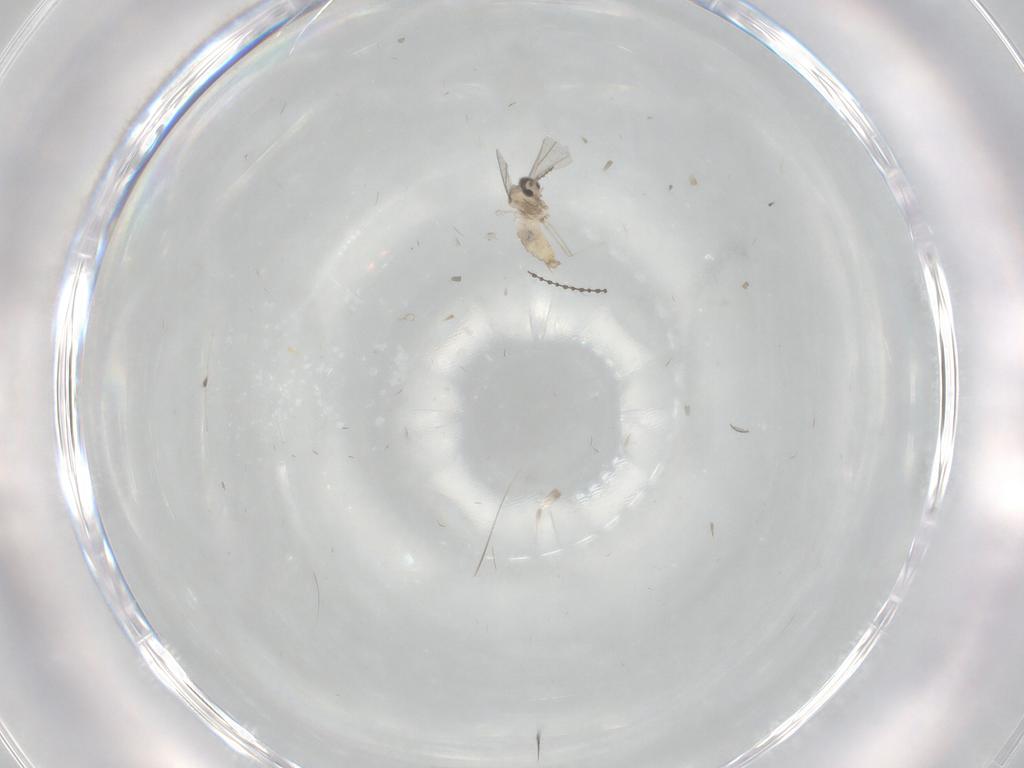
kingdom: Animalia
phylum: Arthropoda
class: Insecta
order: Diptera
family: Cecidomyiidae
